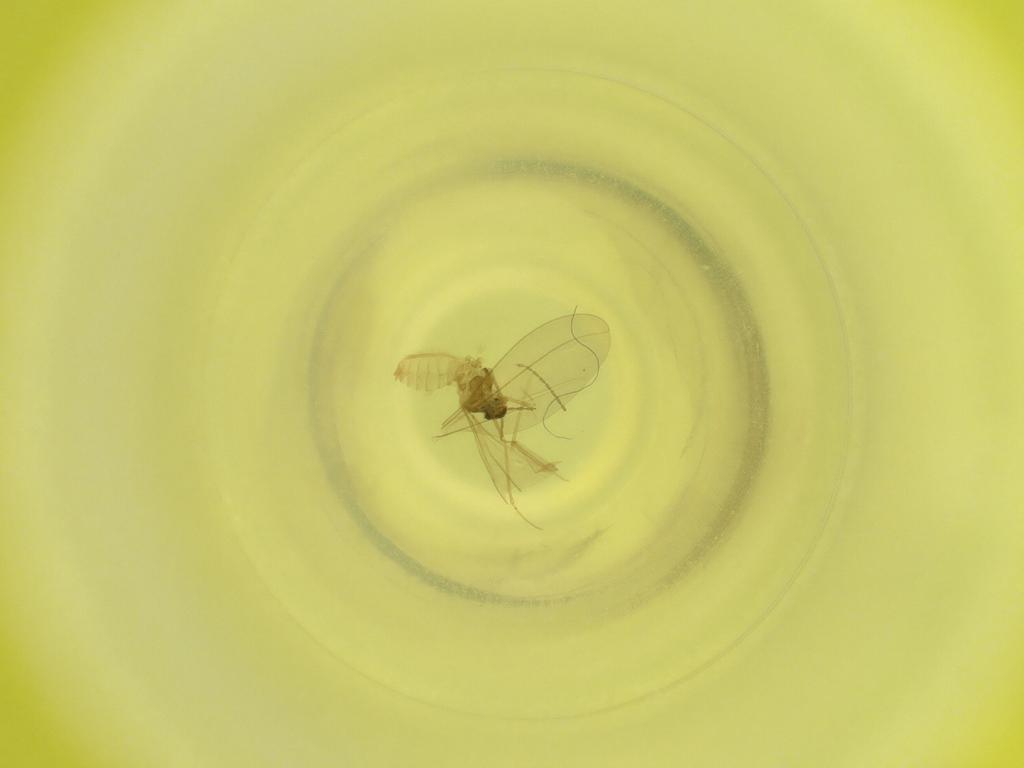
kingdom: Animalia
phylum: Arthropoda
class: Insecta
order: Diptera
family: Cecidomyiidae
